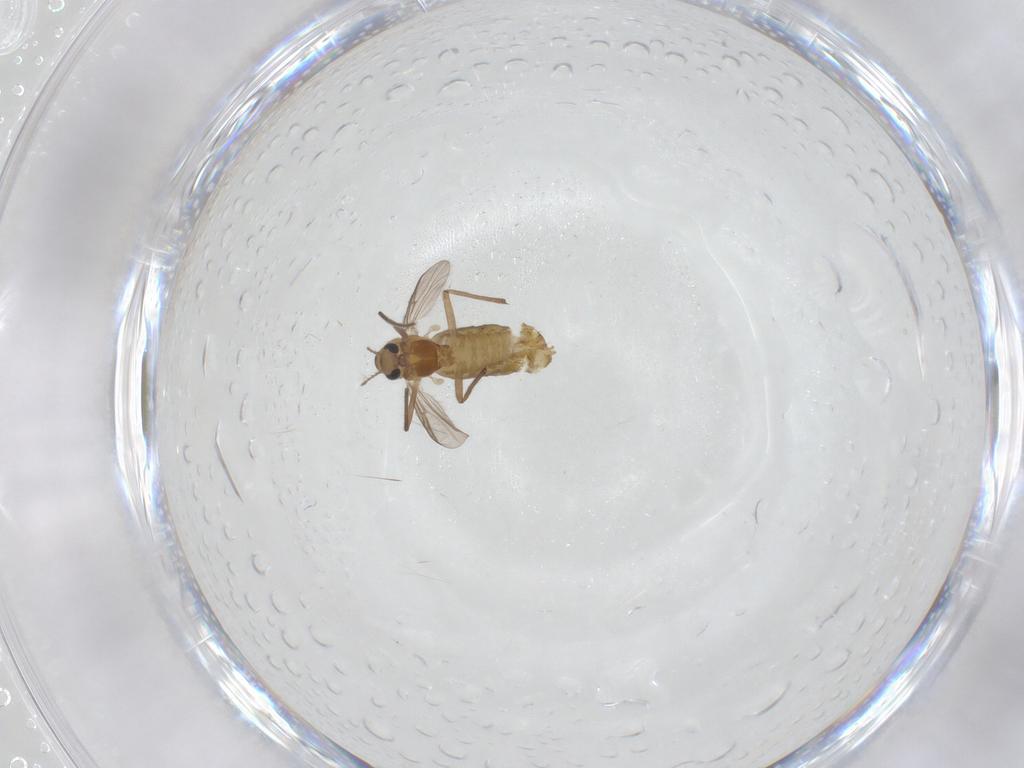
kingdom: Animalia
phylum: Arthropoda
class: Insecta
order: Diptera
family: Chironomidae
